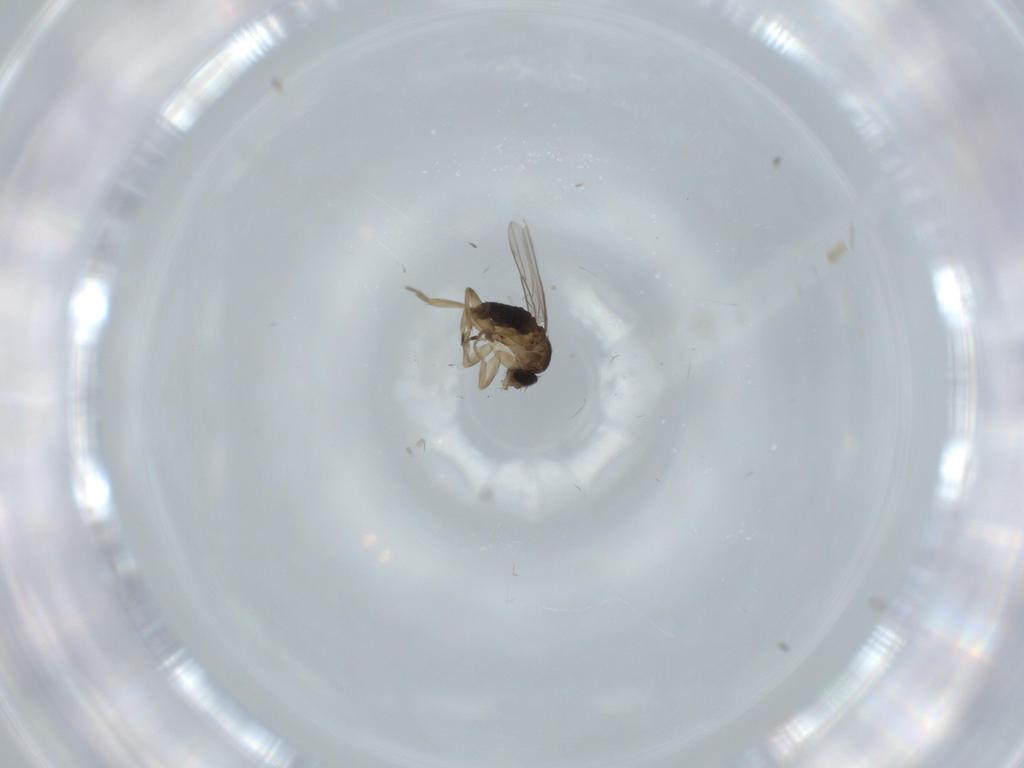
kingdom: Animalia
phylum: Arthropoda
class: Insecta
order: Diptera
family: Phoridae
